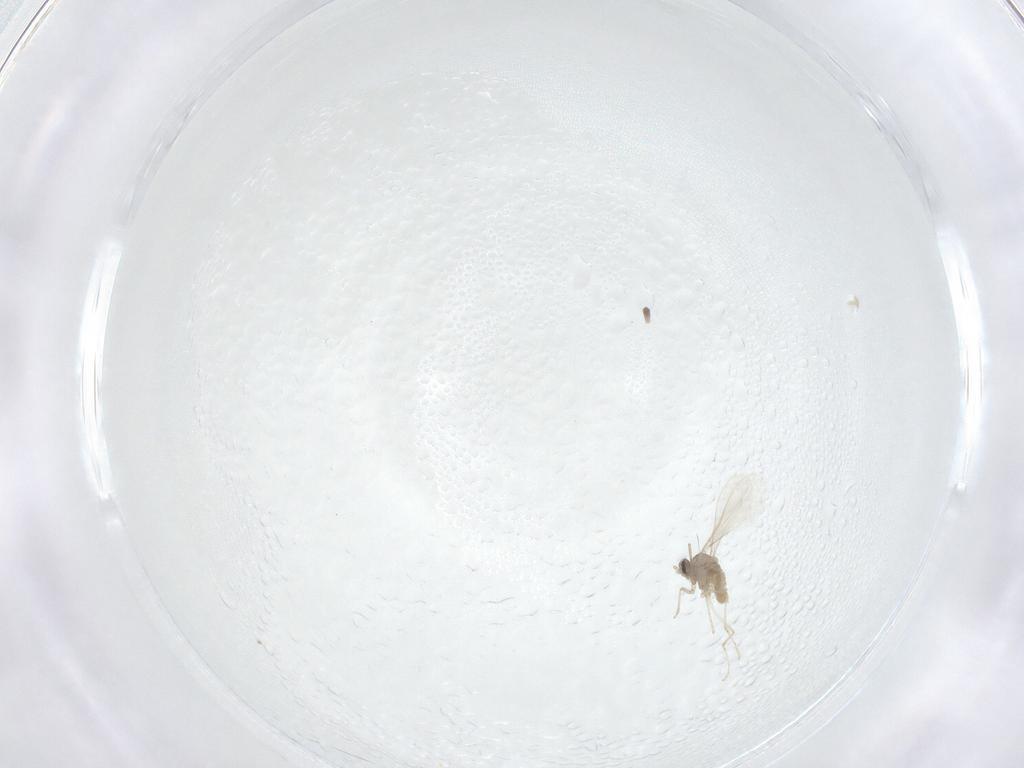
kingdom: Animalia
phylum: Arthropoda
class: Insecta
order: Diptera
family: Cecidomyiidae
